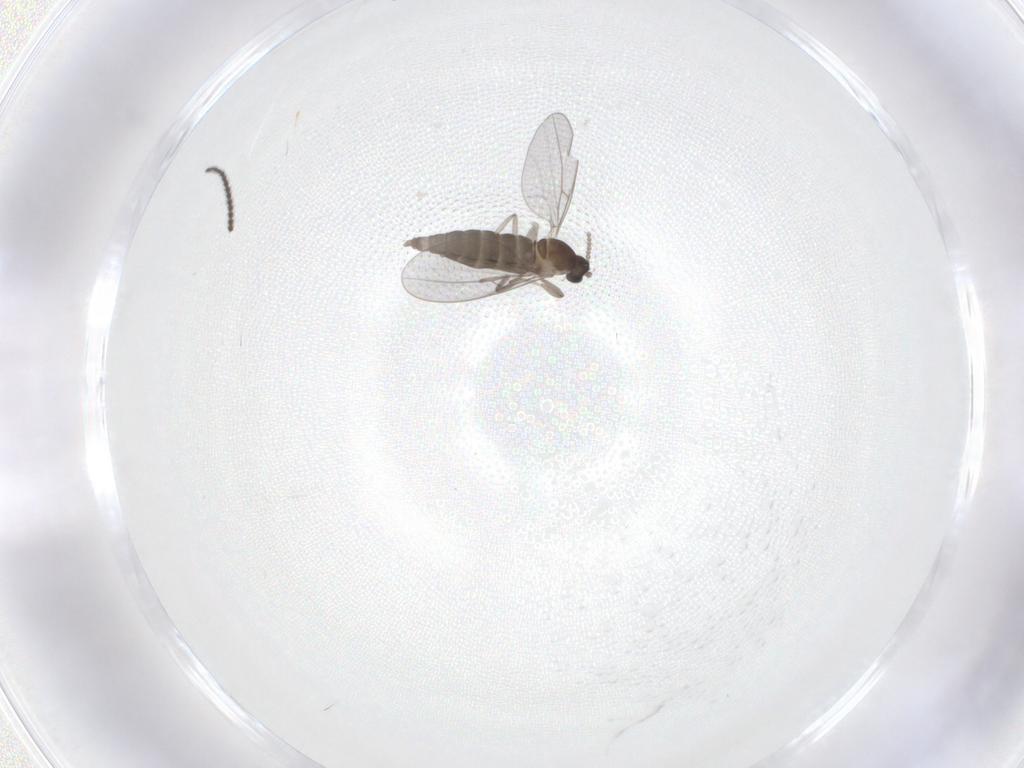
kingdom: Animalia
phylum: Arthropoda
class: Insecta
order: Diptera
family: Cecidomyiidae
